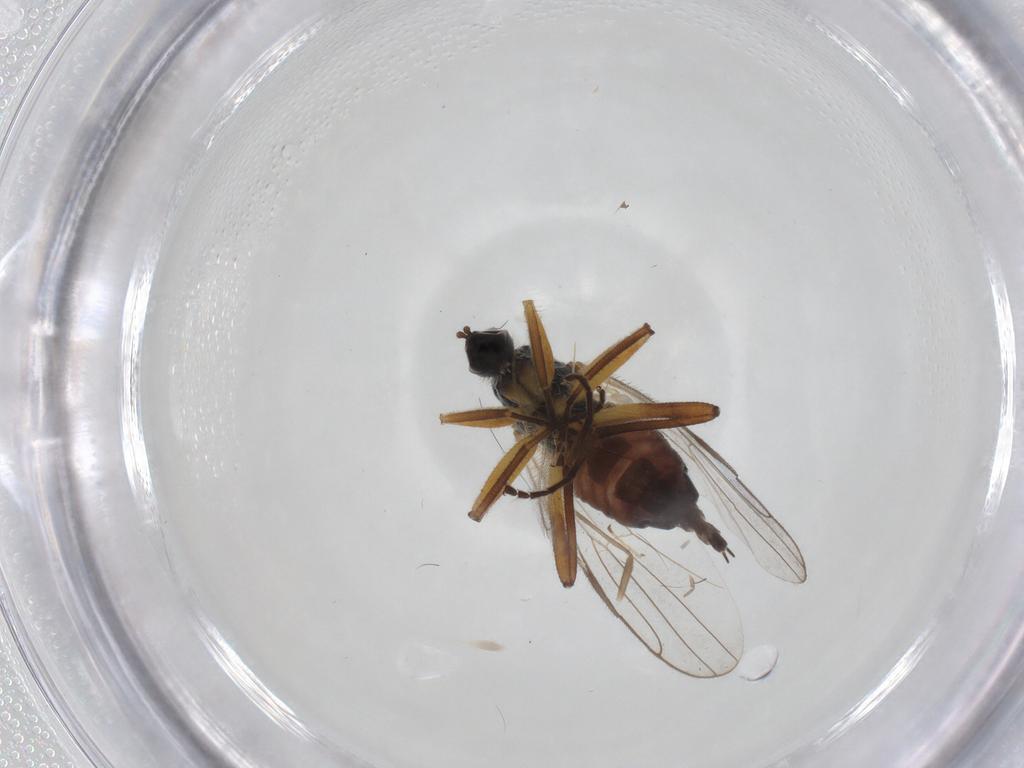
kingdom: Animalia
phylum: Arthropoda
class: Insecta
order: Diptera
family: Hybotidae
